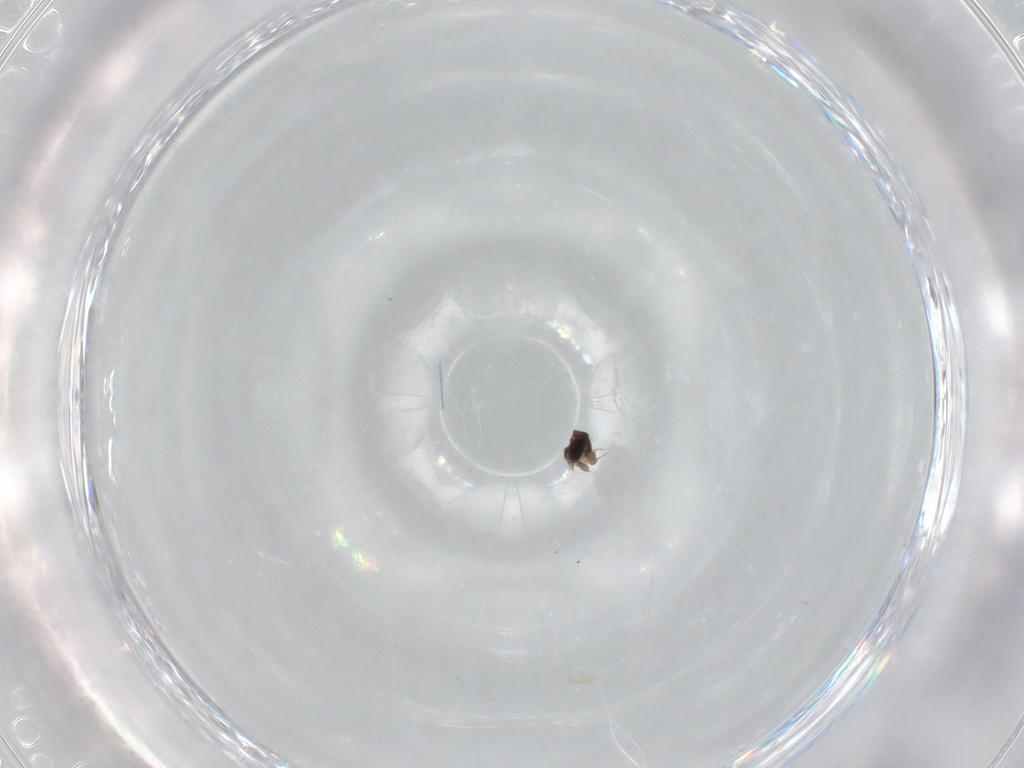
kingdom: Animalia
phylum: Arthropoda
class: Insecta
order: Diptera
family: Phoridae
